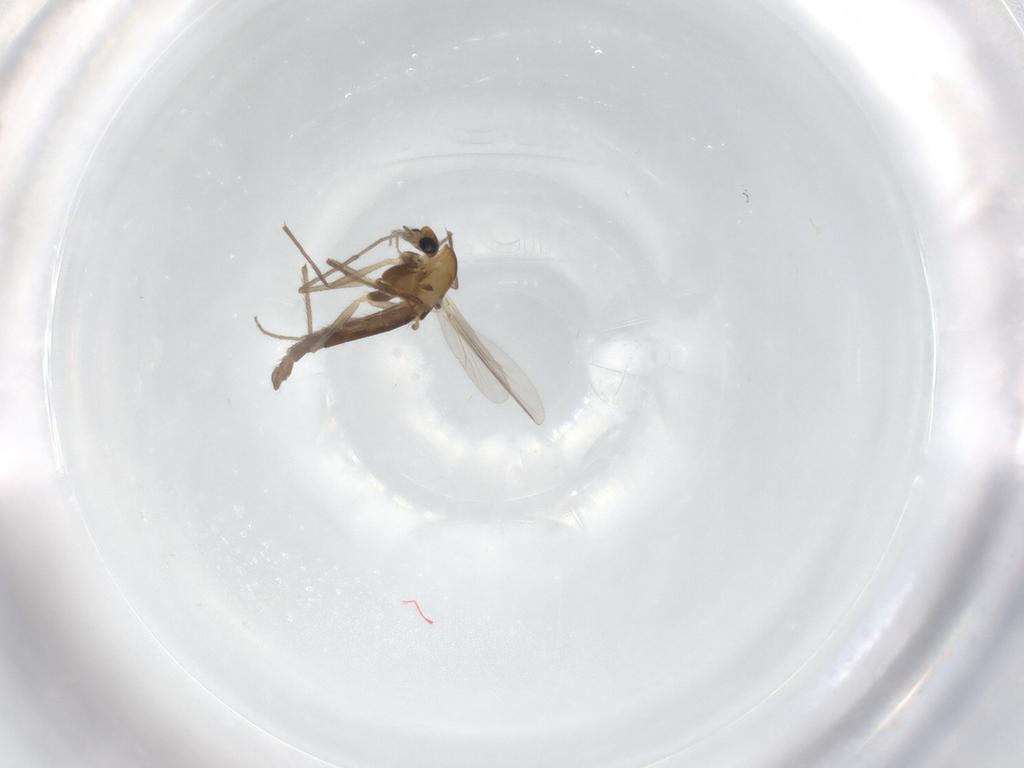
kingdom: Animalia
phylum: Arthropoda
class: Insecta
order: Diptera
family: Chironomidae
